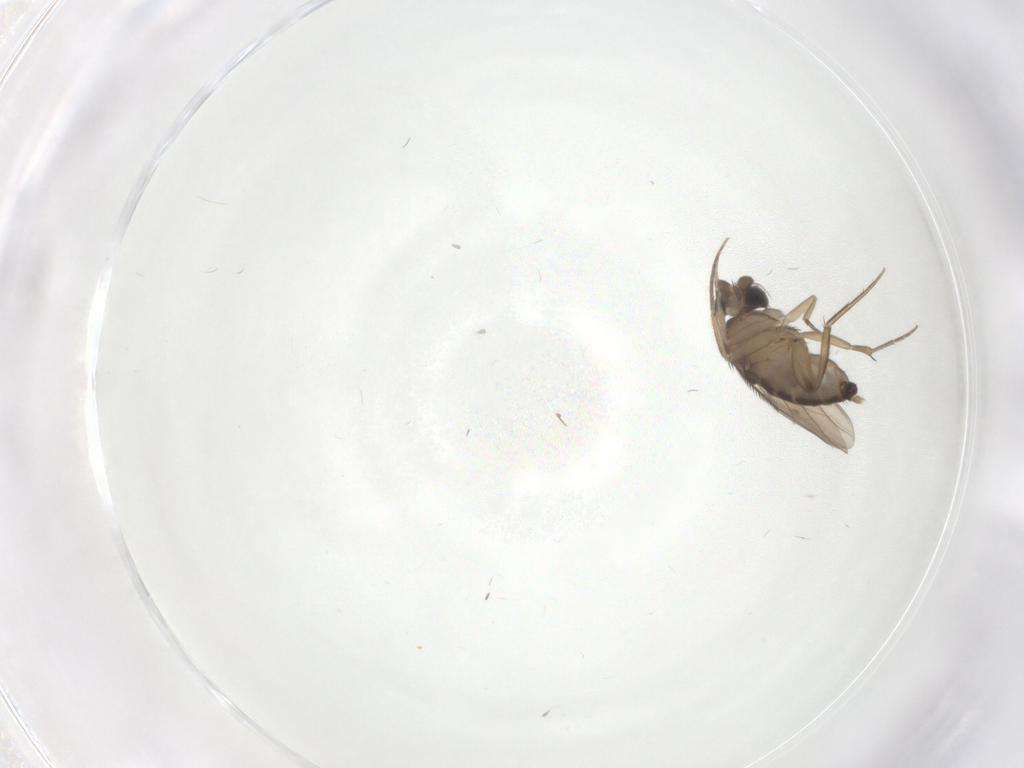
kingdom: Animalia
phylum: Arthropoda
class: Insecta
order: Diptera
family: Phoridae
